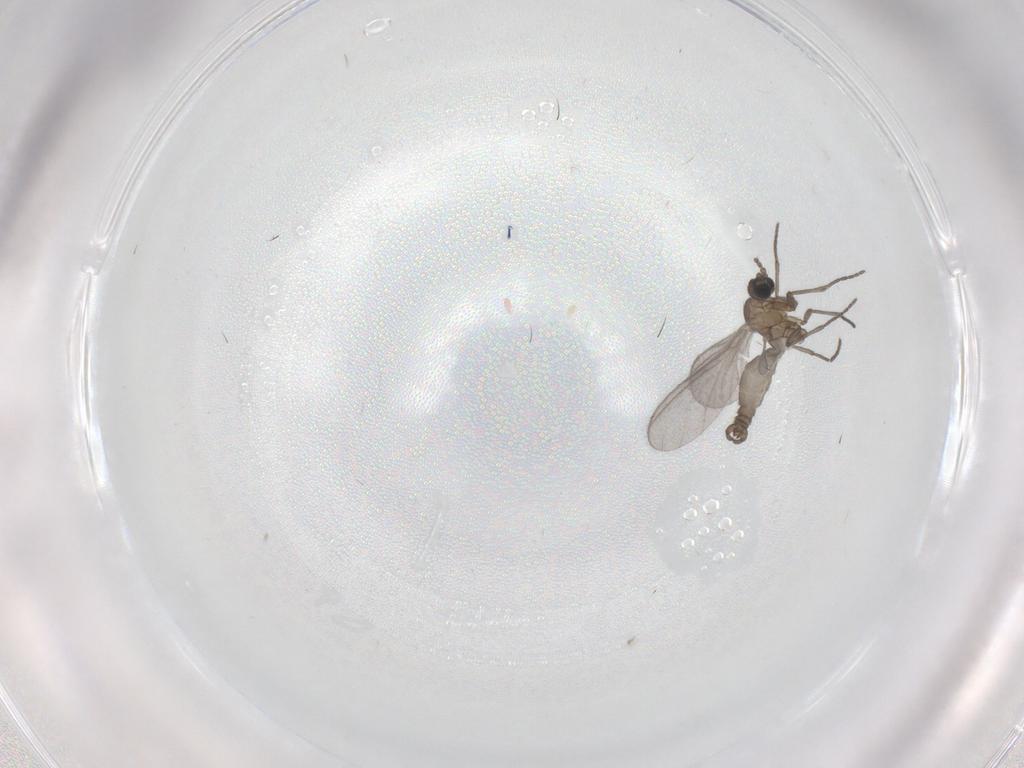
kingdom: Animalia
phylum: Arthropoda
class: Insecta
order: Diptera
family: Sciaridae
